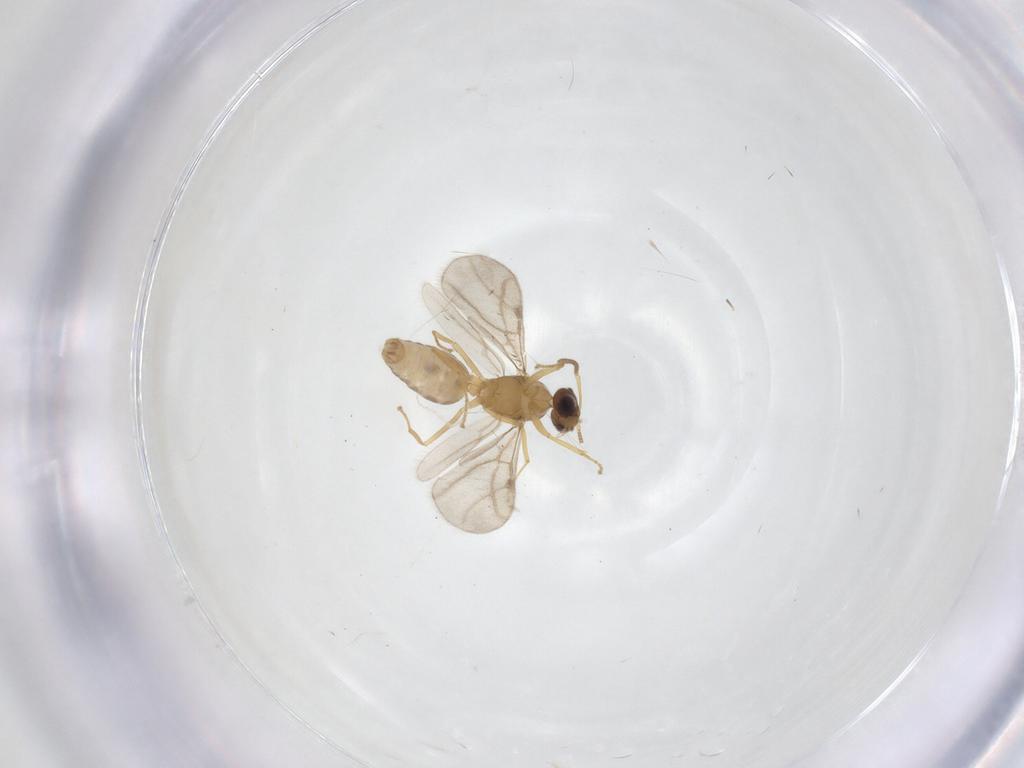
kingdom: Animalia
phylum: Arthropoda
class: Insecta
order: Hymenoptera
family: Formicidae
